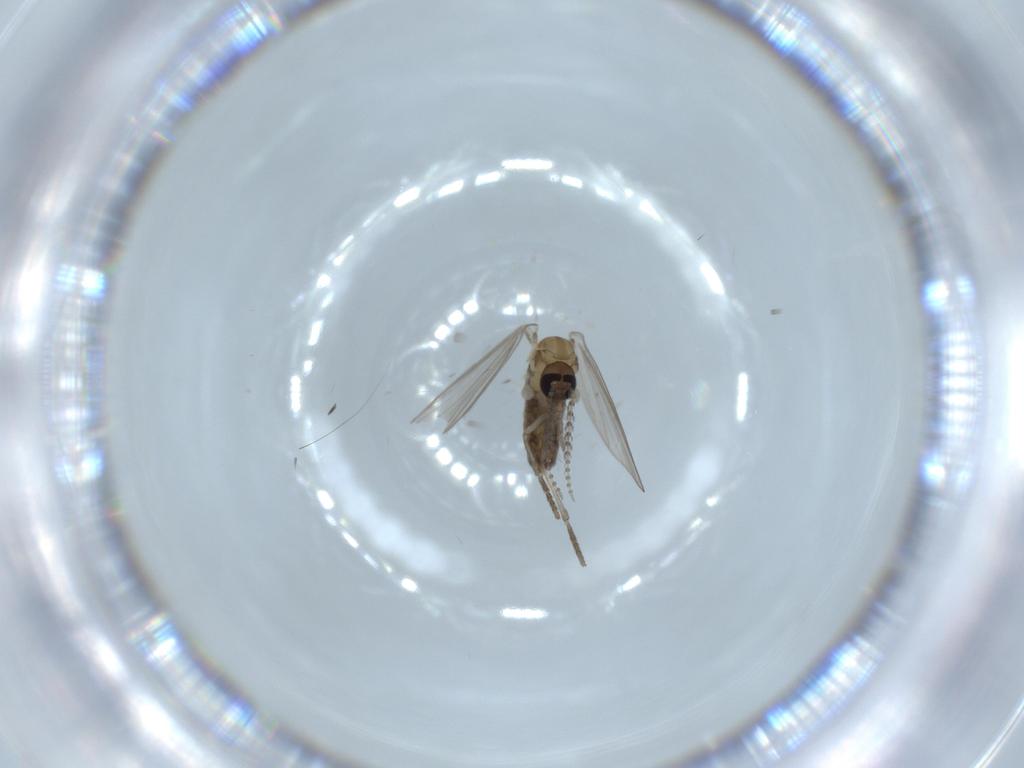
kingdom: Animalia
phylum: Arthropoda
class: Insecta
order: Diptera
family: Psychodidae
